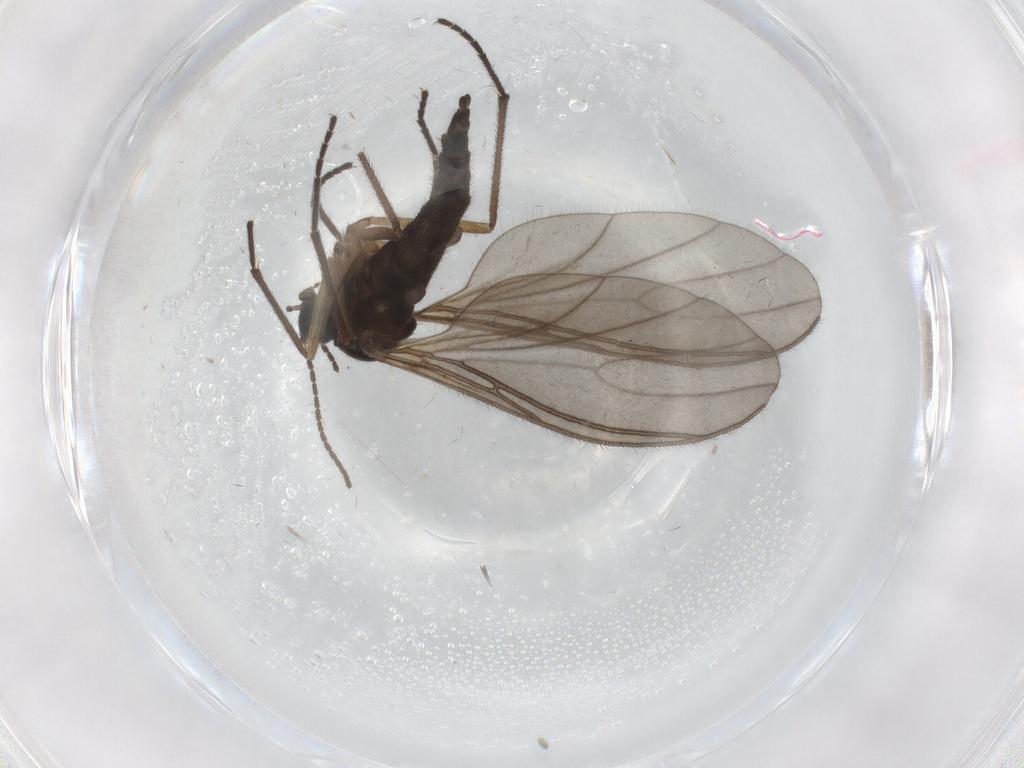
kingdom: Animalia
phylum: Arthropoda
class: Insecta
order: Diptera
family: Sciaridae
